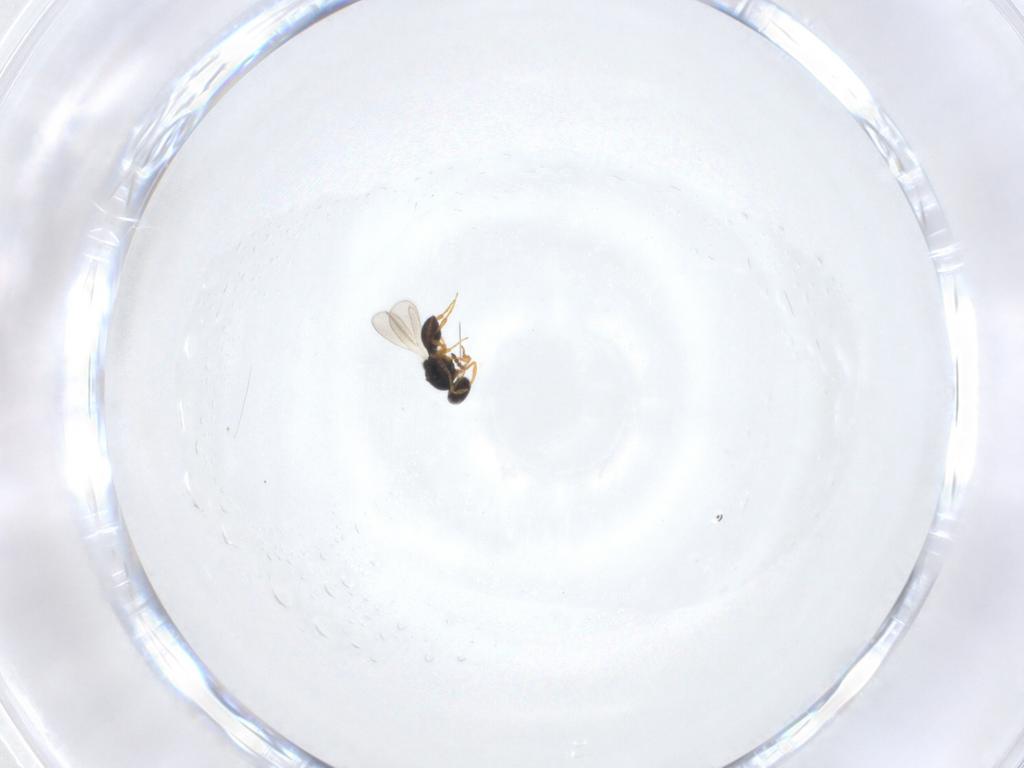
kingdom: Animalia
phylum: Arthropoda
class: Insecta
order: Hymenoptera
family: Platygastridae
